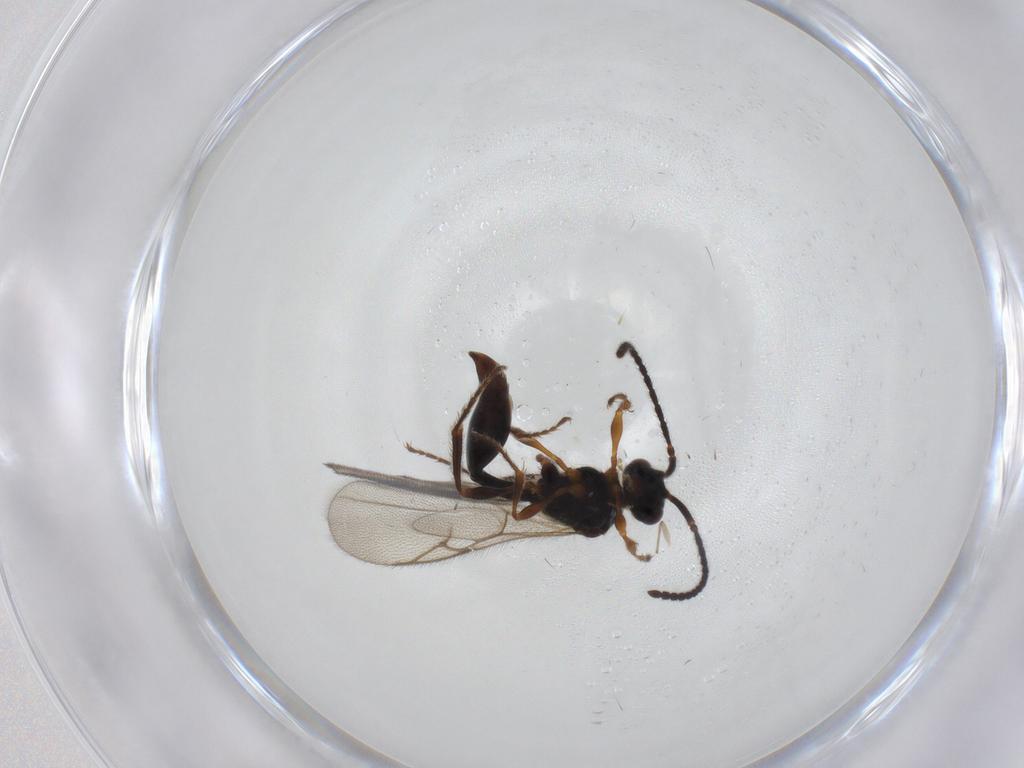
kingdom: Animalia
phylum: Arthropoda
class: Insecta
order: Hymenoptera
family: Diapriidae
